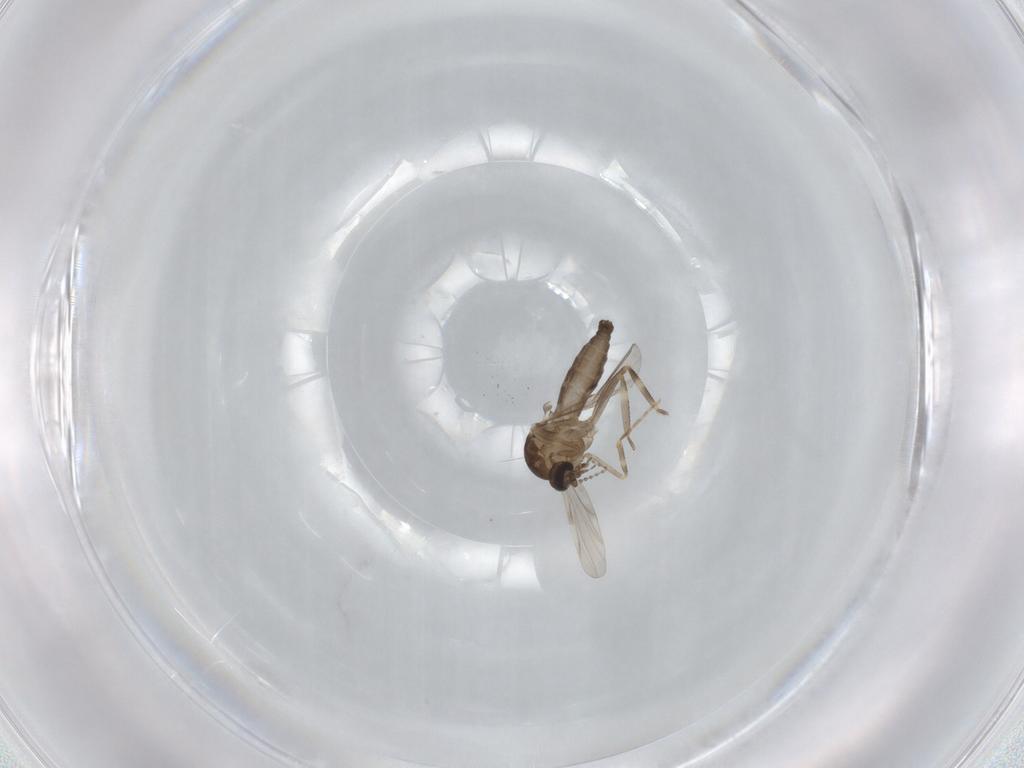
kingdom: Animalia
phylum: Arthropoda
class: Insecta
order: Diptera
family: Ceratopogonidae
